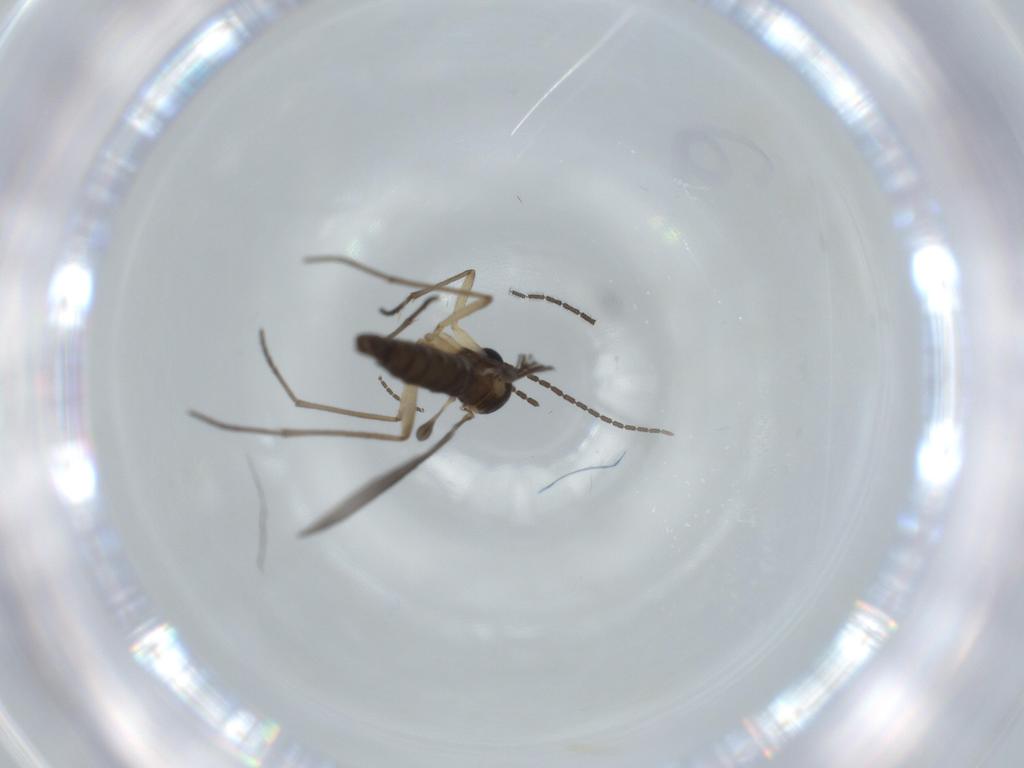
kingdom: Animalia
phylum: Arthropoda
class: Insecta
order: Diptera
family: Sciaridae
